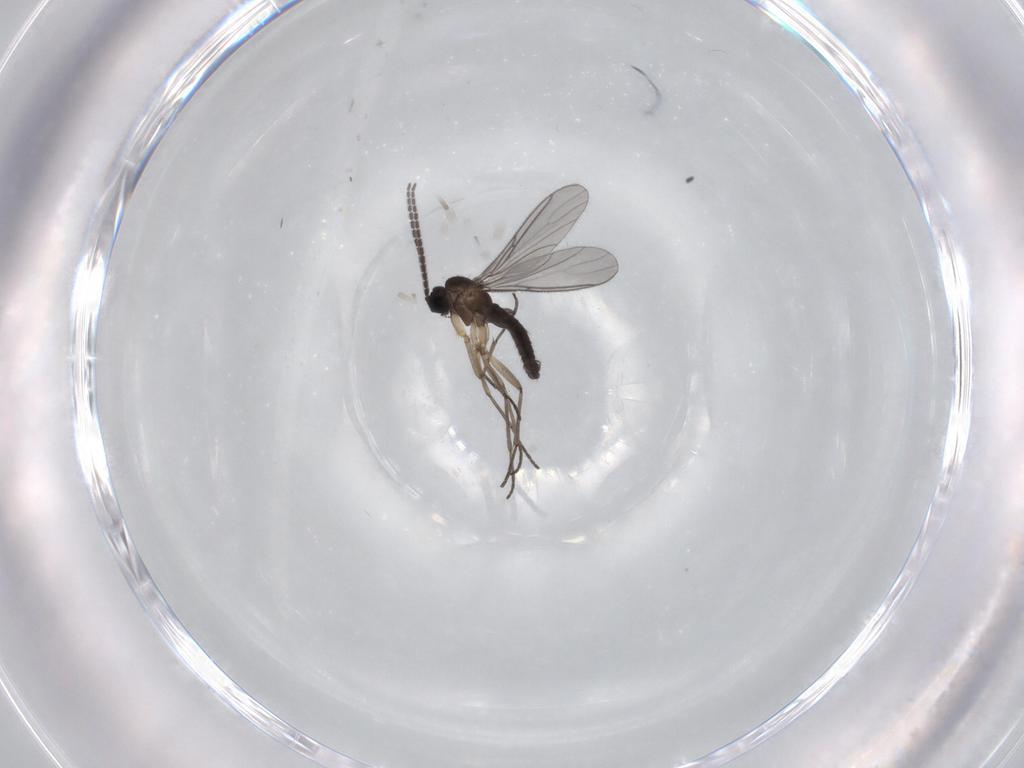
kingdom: Animalia
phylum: Arthropoda
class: Insecta
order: Diptera
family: Sciaridae
